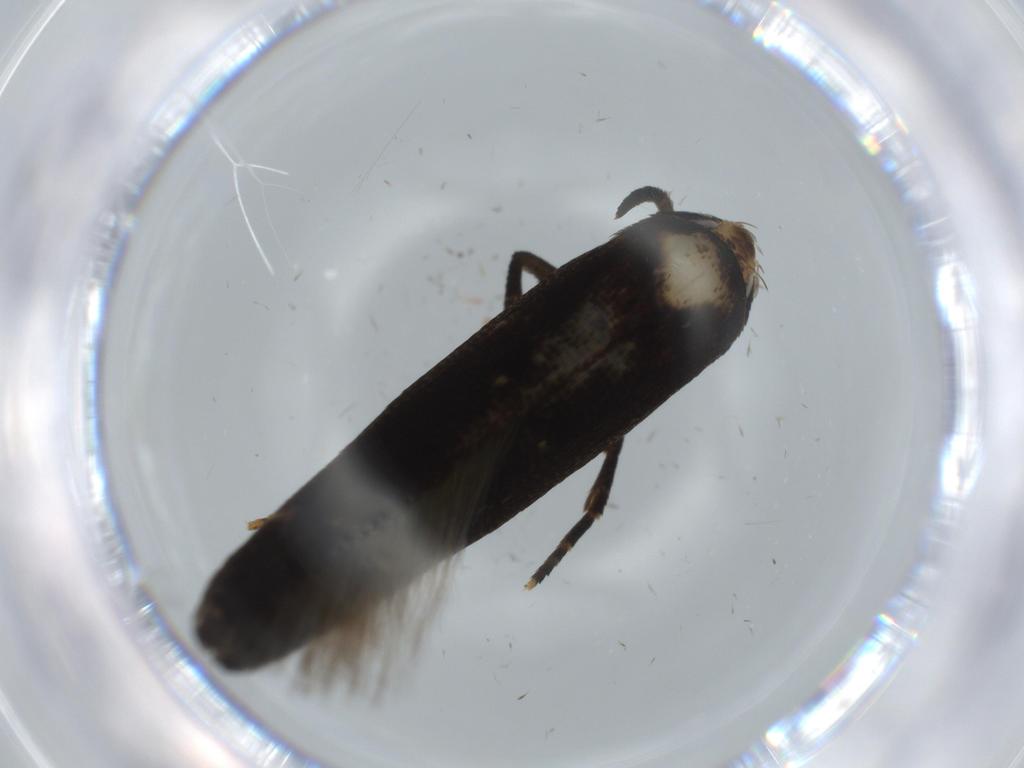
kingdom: Animalia
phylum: Arthropoda
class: Insecta
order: Lepidoptera
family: Gelechiidae
